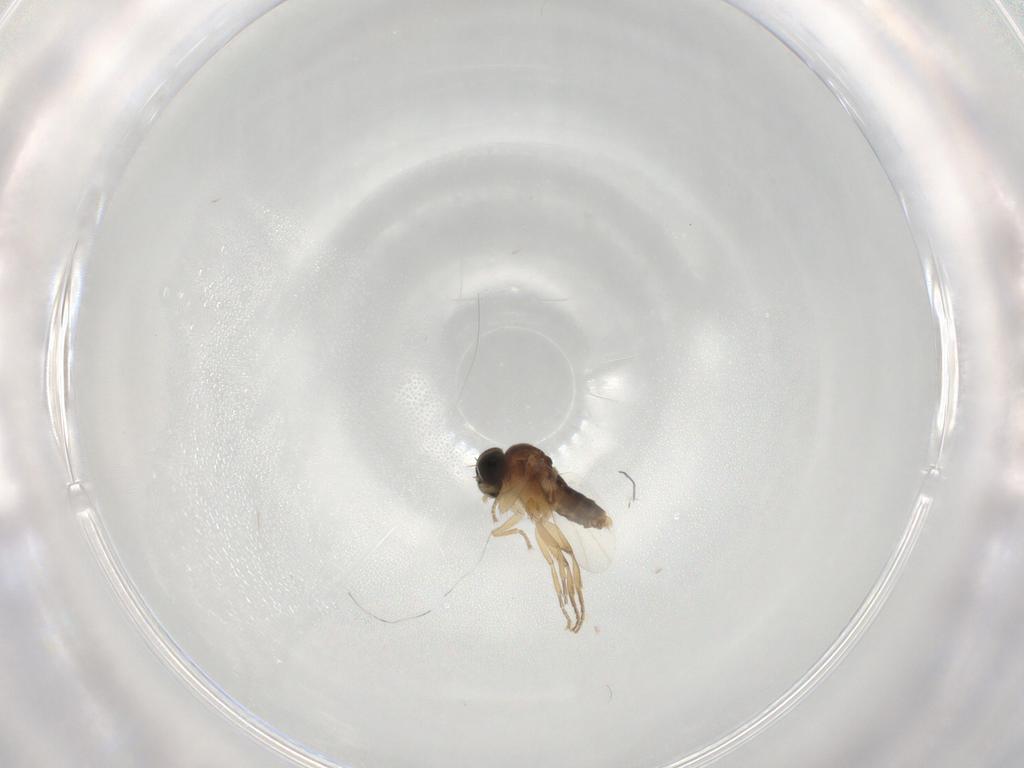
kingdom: Animalia
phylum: Arthropoda
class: Insecta
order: Diptera
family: Phoridae
